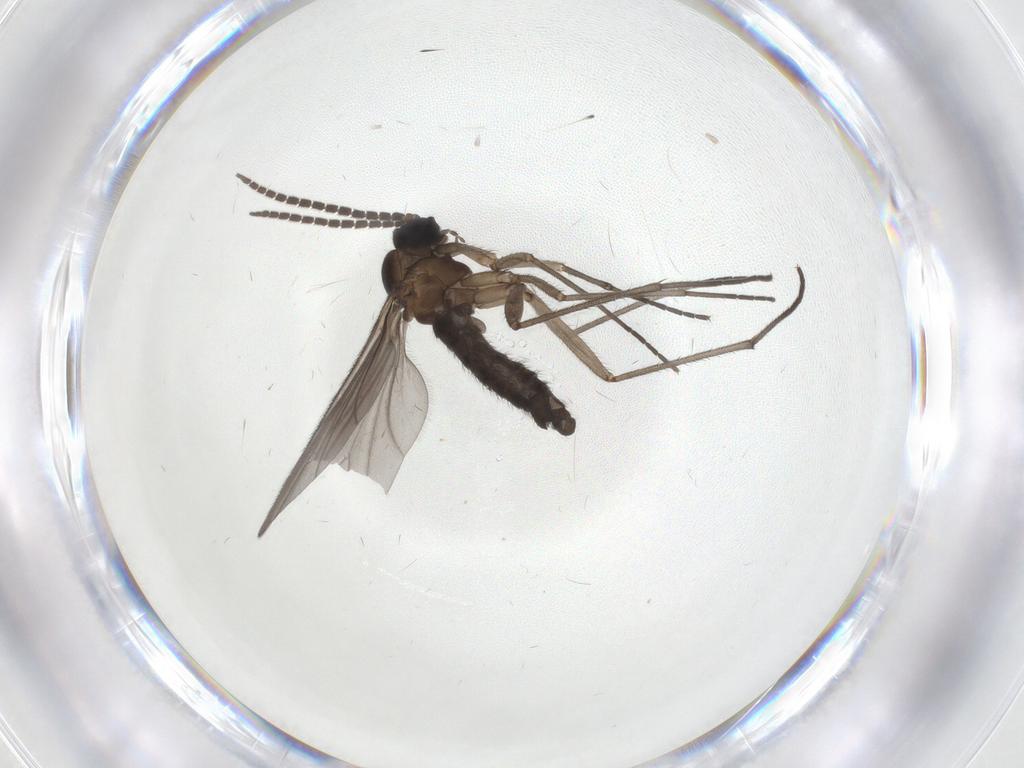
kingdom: Animalia
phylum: Arthropoda
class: Insecta
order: Diptera
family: Sciaridae
